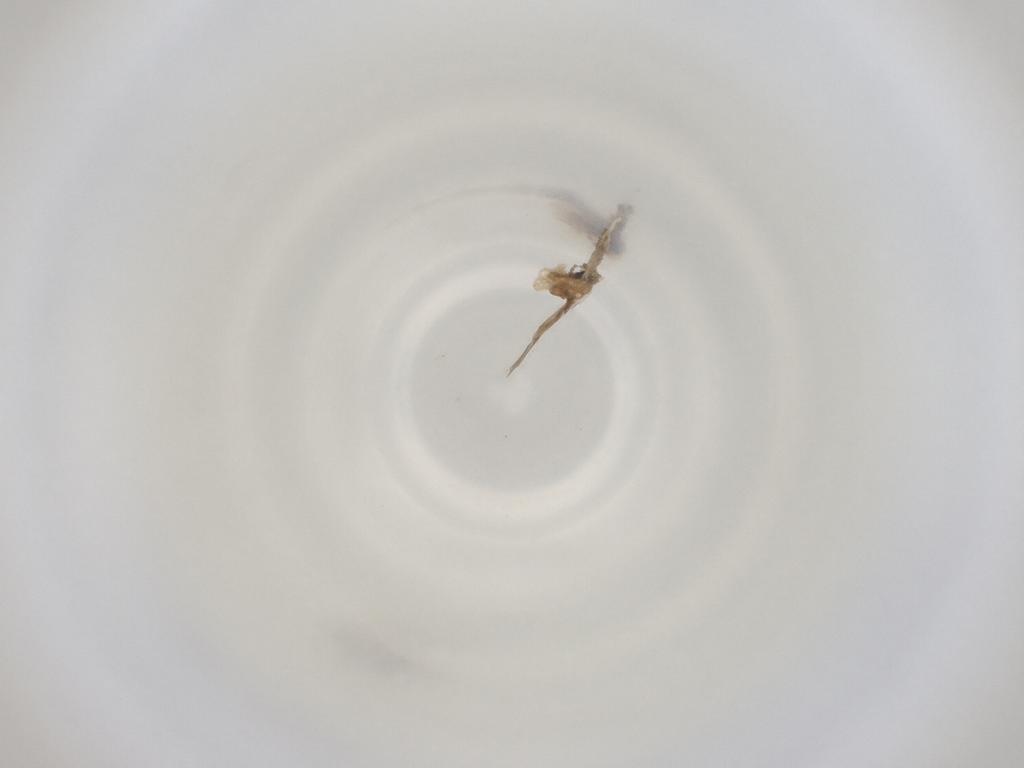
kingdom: Animalia
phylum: Arthropoda
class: Insecta
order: Diptera
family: Cecidomyiidae
